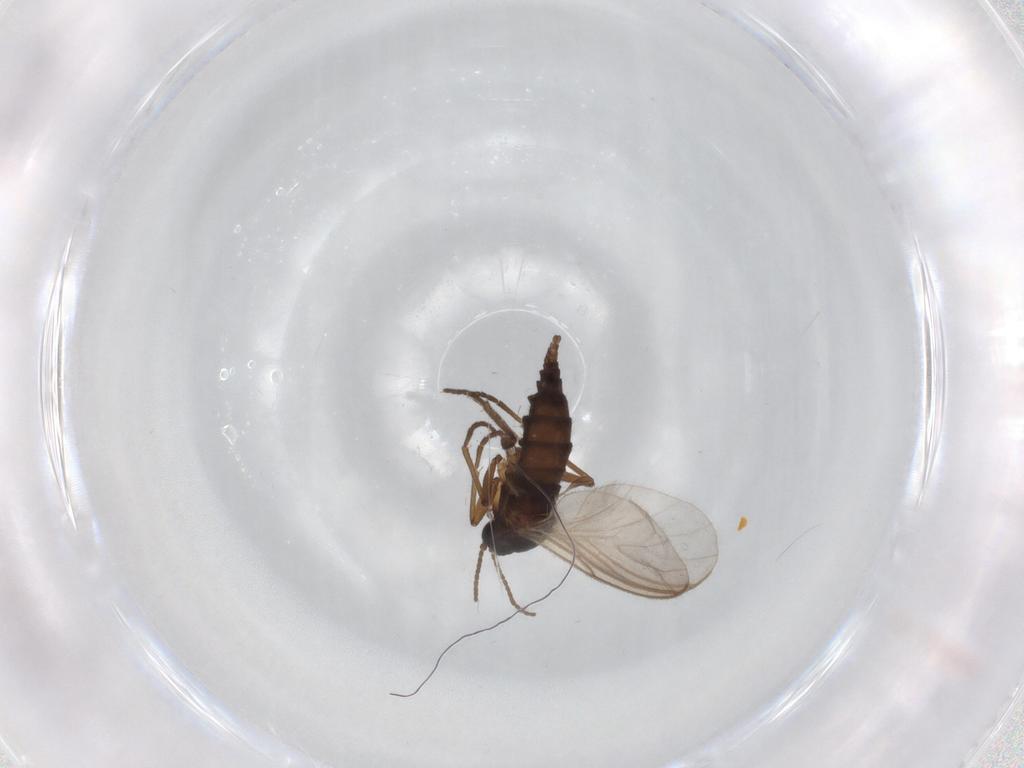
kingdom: Animalia
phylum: Arthropoda
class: Insecta
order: Diptera
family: Sciaridae
